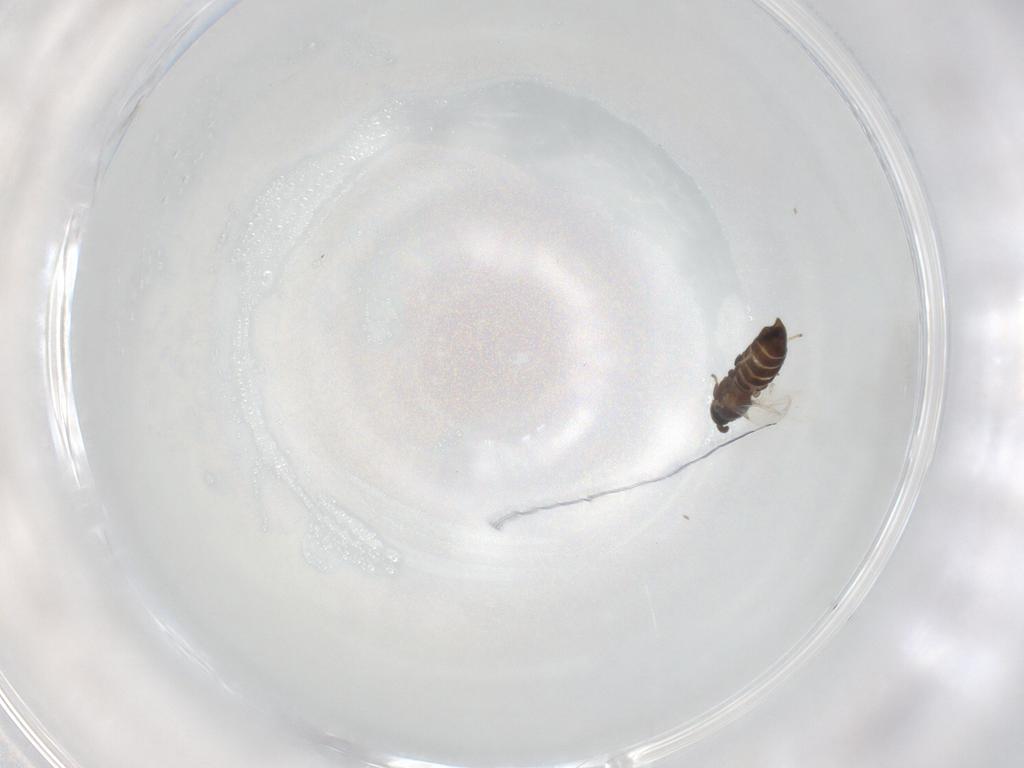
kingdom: Animalia
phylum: Arthropoda
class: Insecta
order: Diptera
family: Scatopsidae
